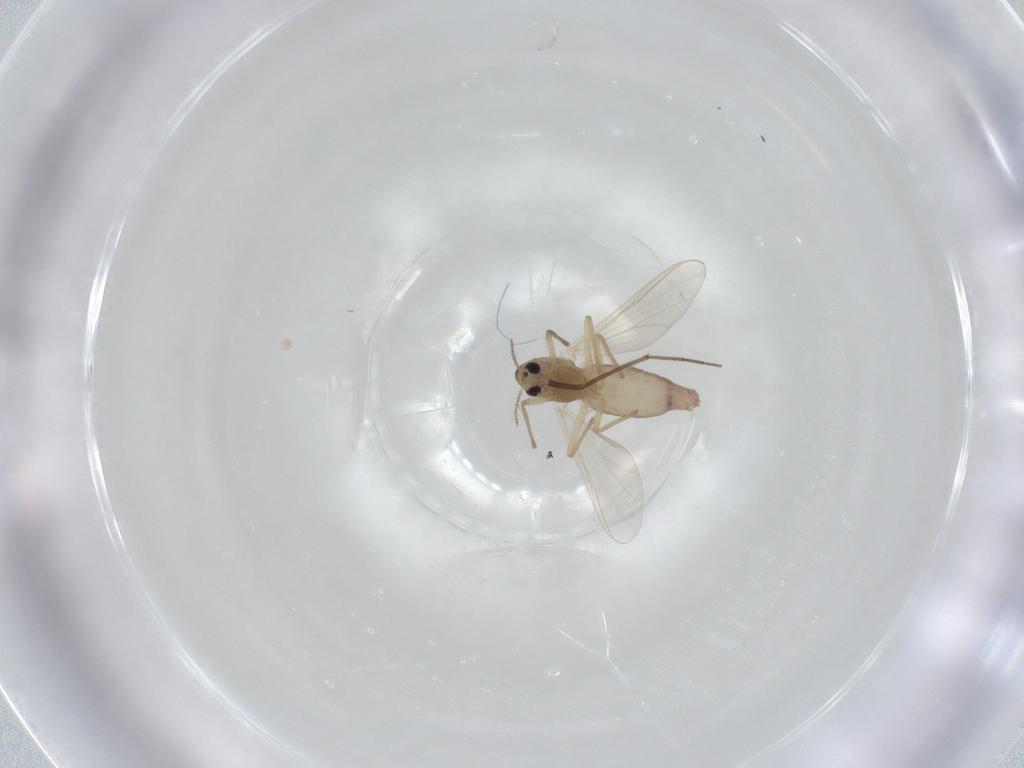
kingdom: Animalia
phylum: Arthropoda
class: Insecta
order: Diptera
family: Chironomidae
